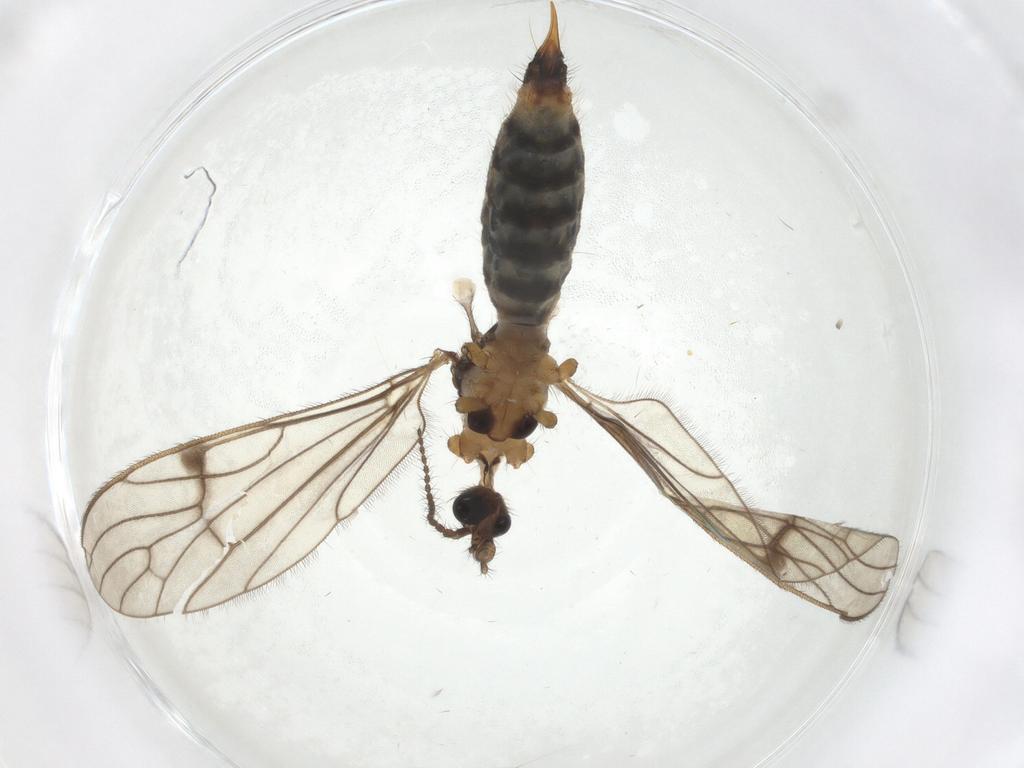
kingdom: Animalia
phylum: Arthropoda
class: Insecta
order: Diptera
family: Limoniidae
